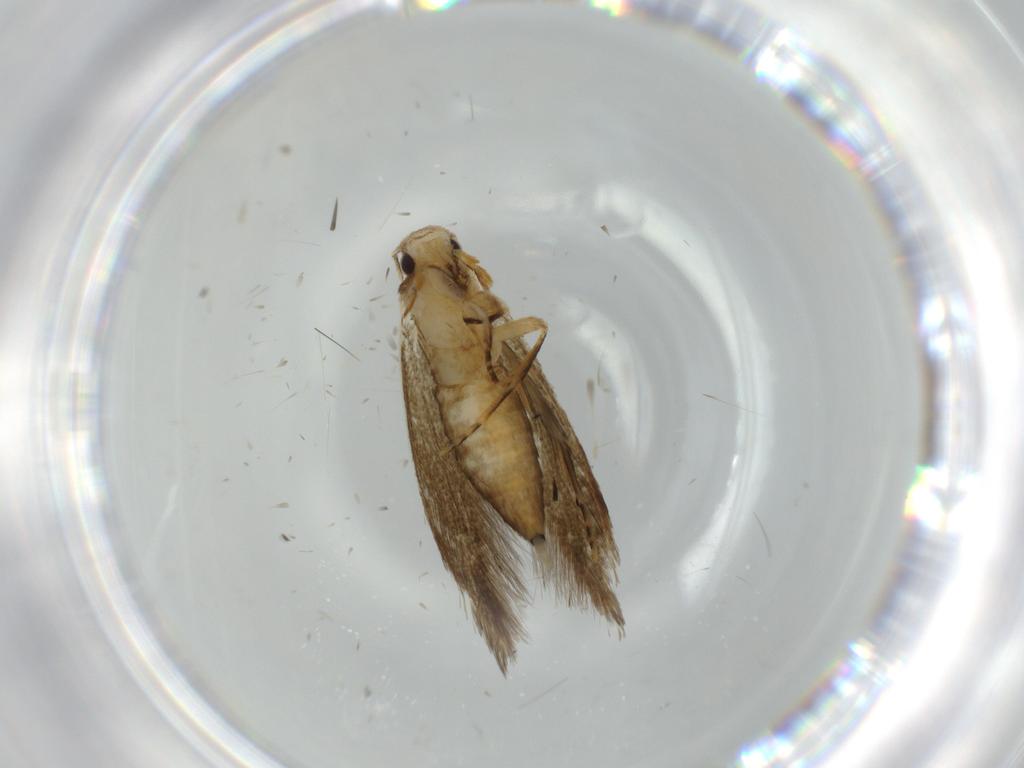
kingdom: Animalia
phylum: Arthropoda
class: Insecta
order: Lepidoptera
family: Tineidae
